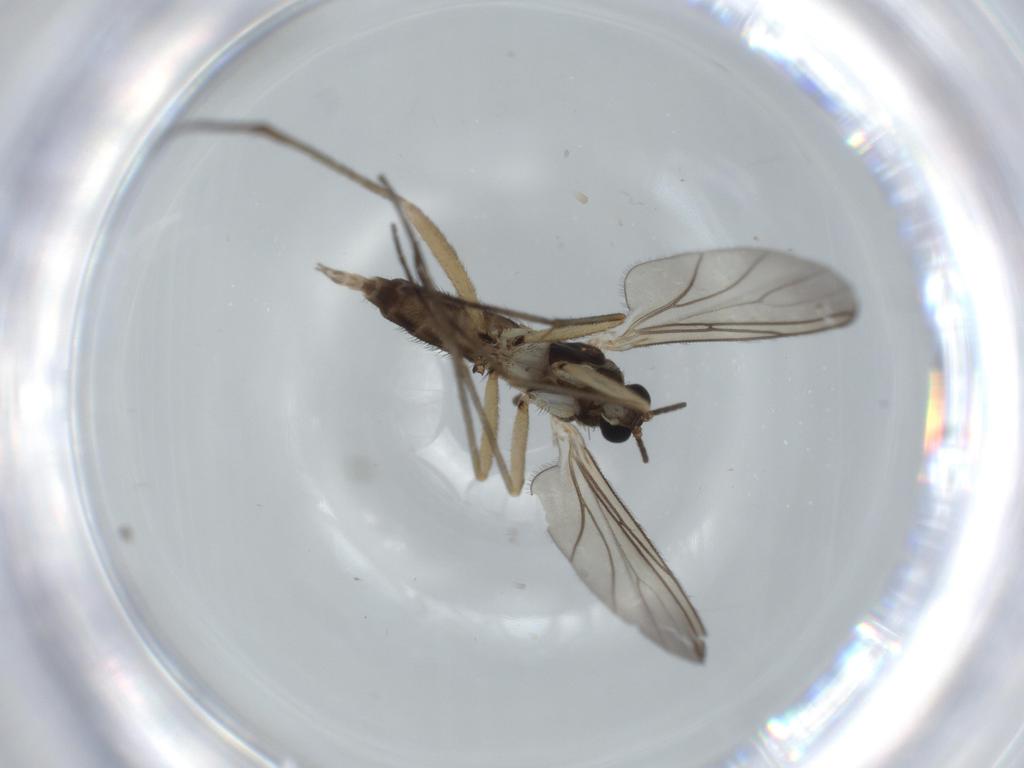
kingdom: Animalia
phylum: Arthropoda
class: Insecta
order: Diptera
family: Sciaridae
